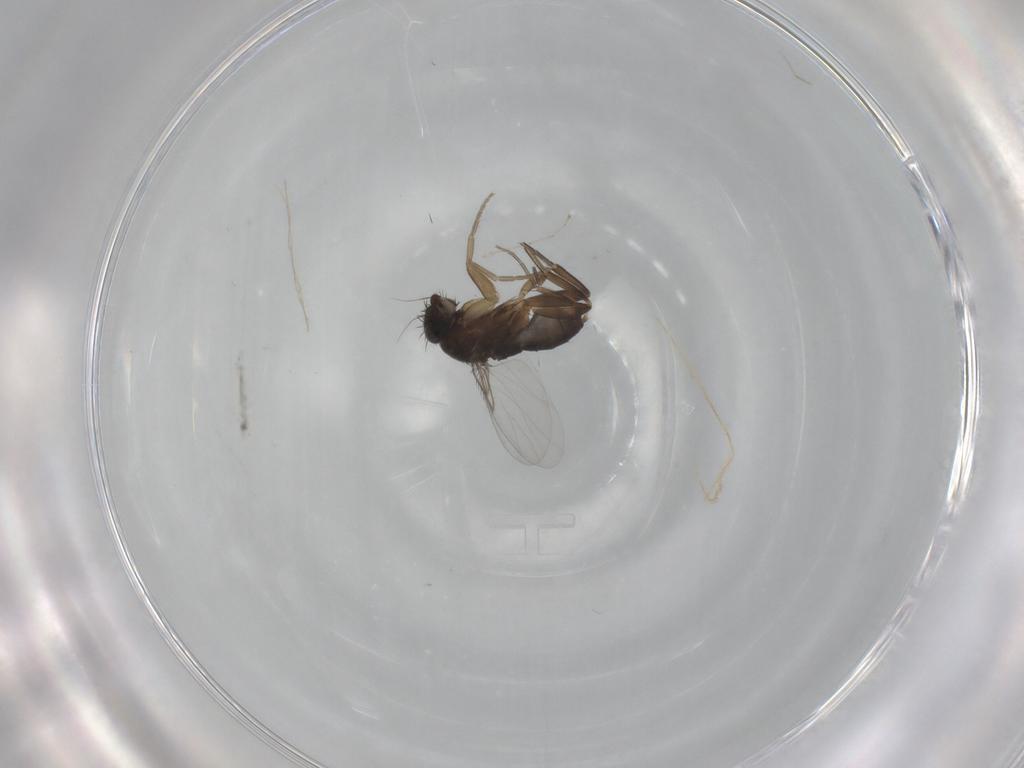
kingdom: Animalia
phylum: Arthropoda
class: Insecta
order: Diptera
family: Phoridae
